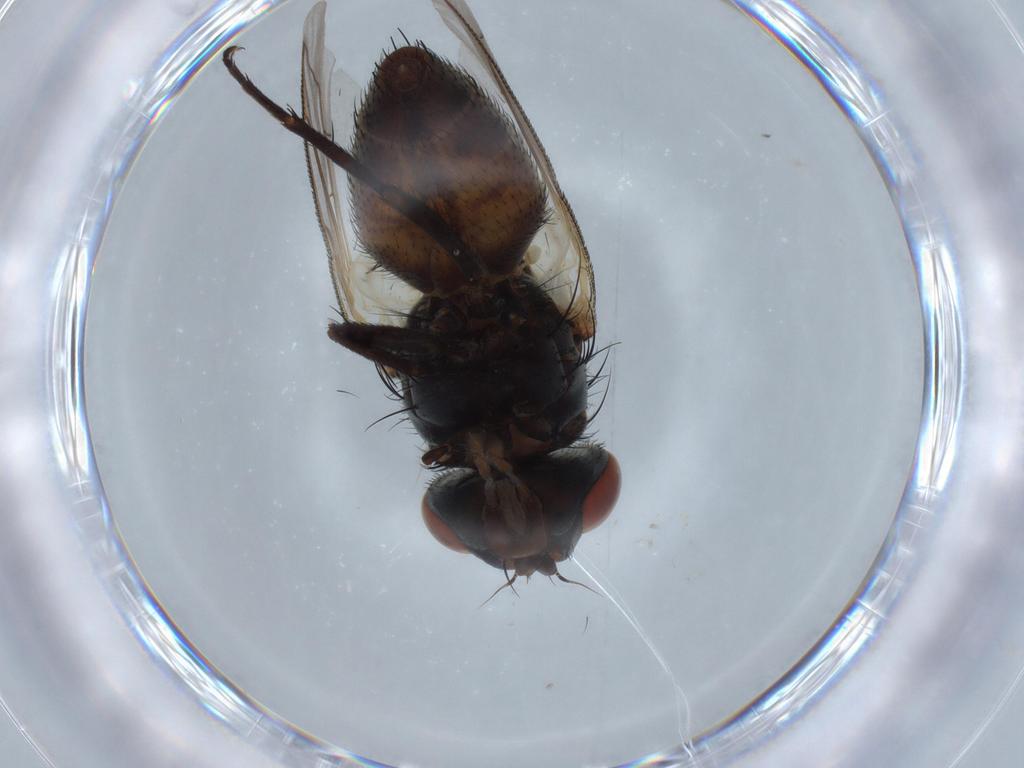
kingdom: Animalia
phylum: Arthropoda
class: Insecta
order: Diptera
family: Sarcophagidae
